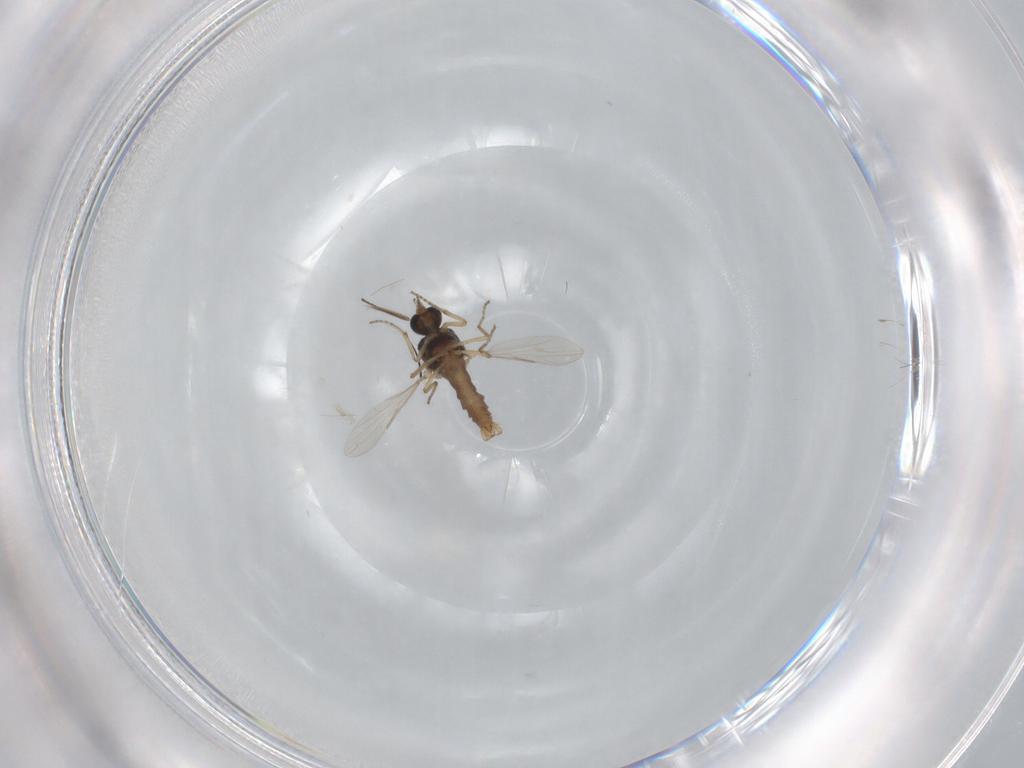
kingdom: Animalia
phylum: Arthropoda
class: Insecta
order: Diptera
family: Ceratopogonidae
